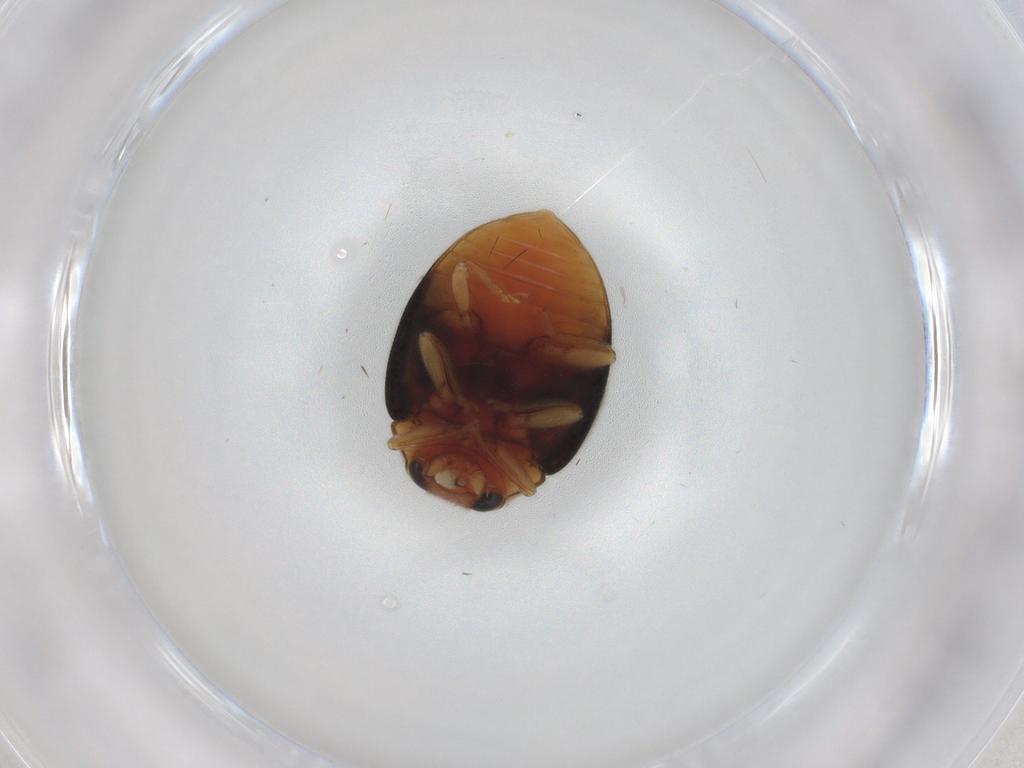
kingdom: Animalia
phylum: Arthropoda
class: Insecta
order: Coleoptera
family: Coccinellidae
